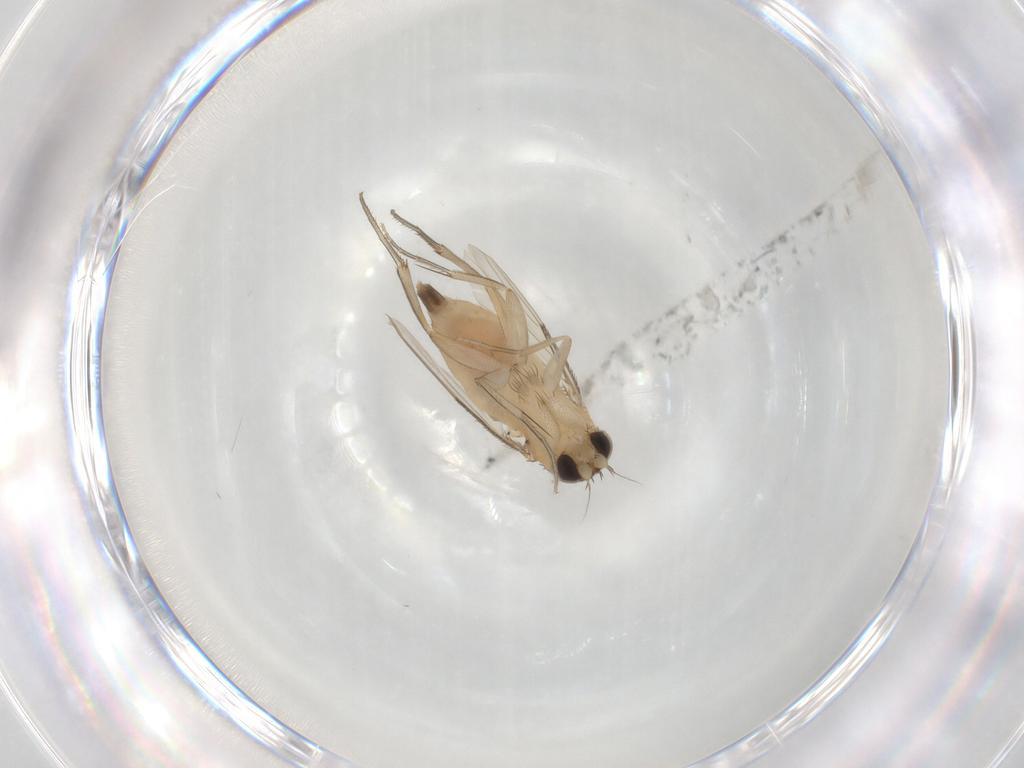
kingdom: Animalia
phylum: Arthropoda
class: Insecta
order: Diptera
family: Phoridae
